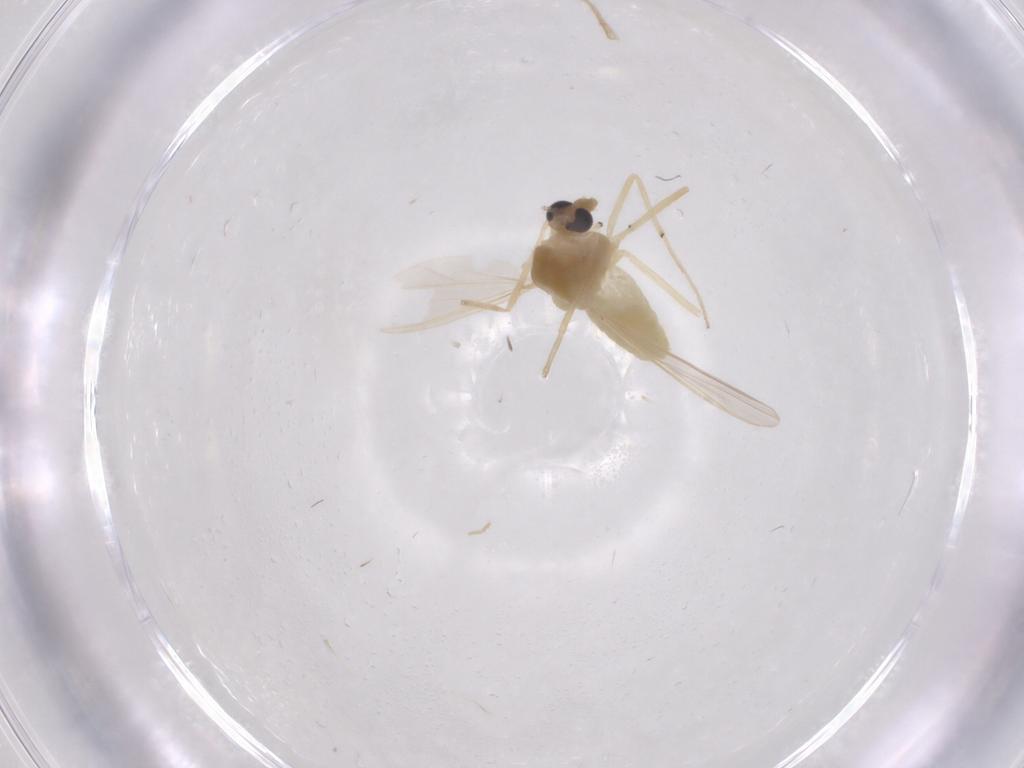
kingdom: Animalia
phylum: Arthropoda
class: Insecta
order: Diptera
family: Chironomidae
